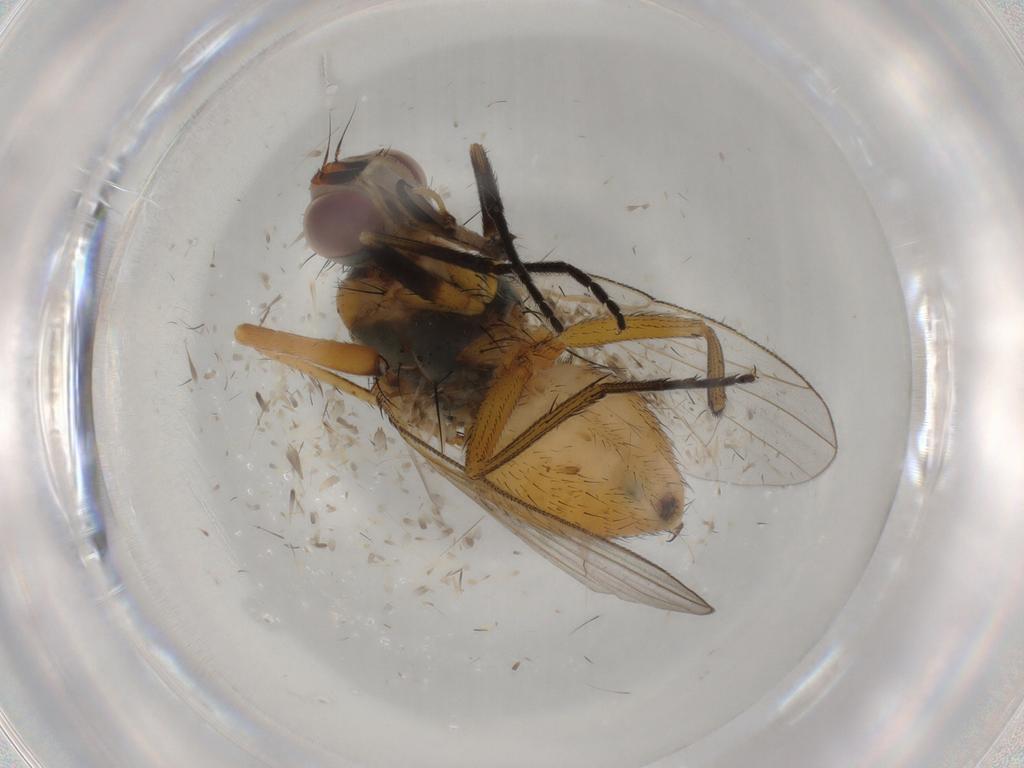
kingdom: Animalia
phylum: Arthropoda
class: Insecta
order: Diptera
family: Muscidae
